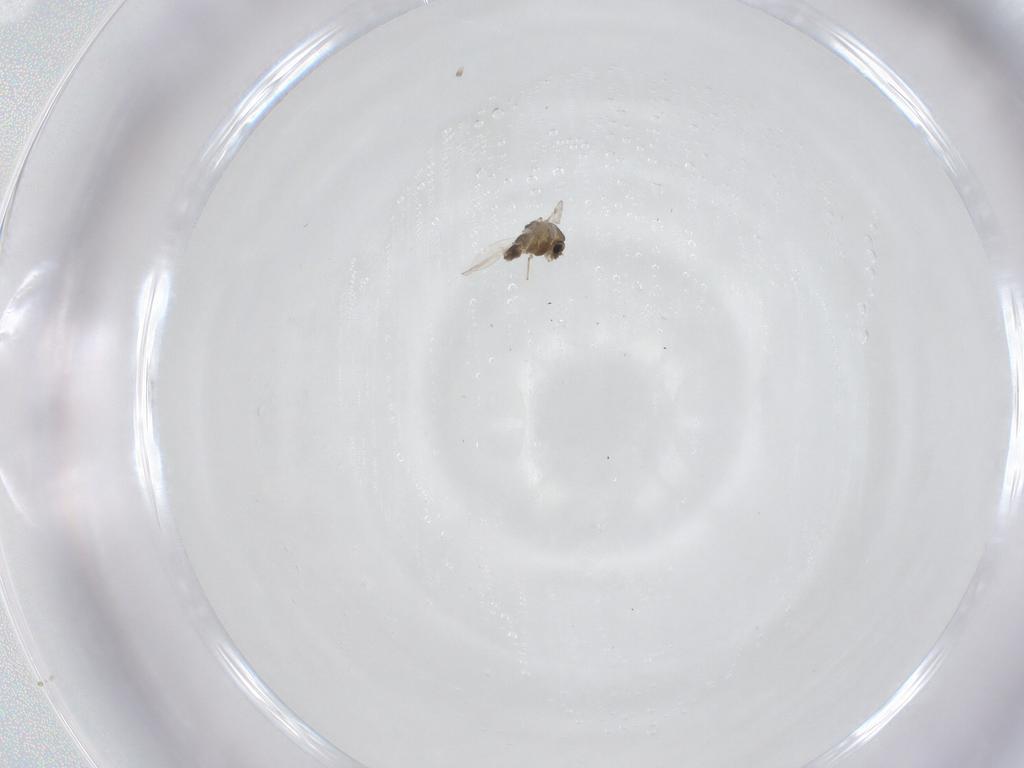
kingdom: Animalia
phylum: Arthropoda
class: Insecta
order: Diptera
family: Chironomidae
